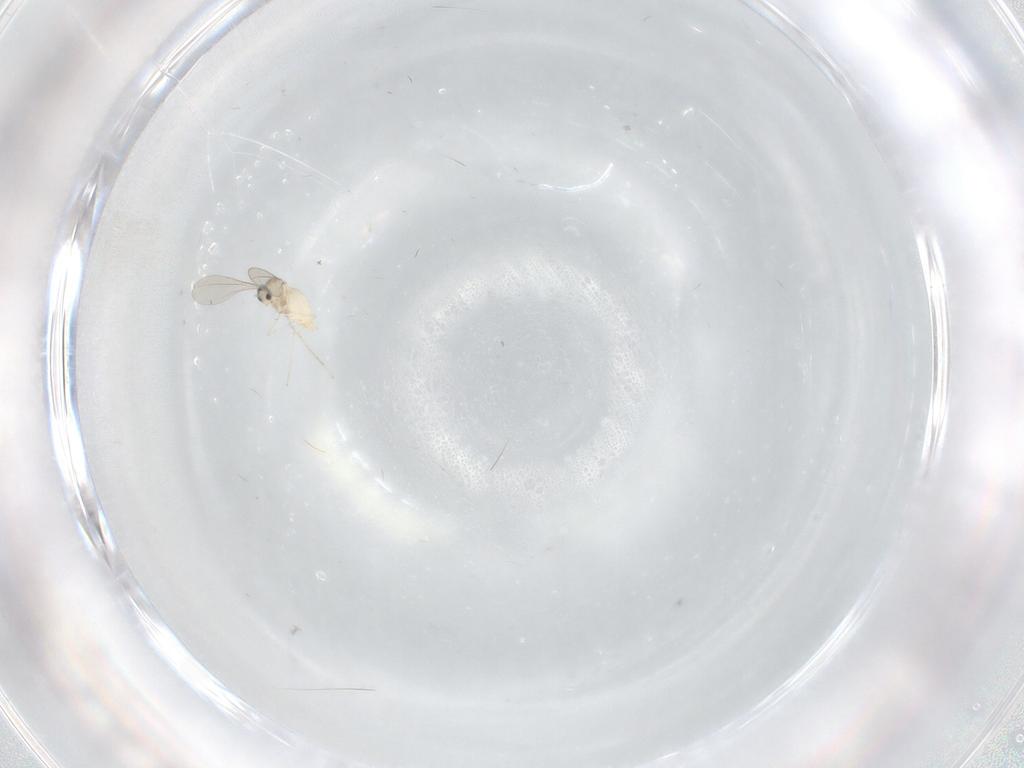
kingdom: Animalia
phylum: Arthropoda
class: Insecta
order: Diptera
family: Cecidomyiidae
